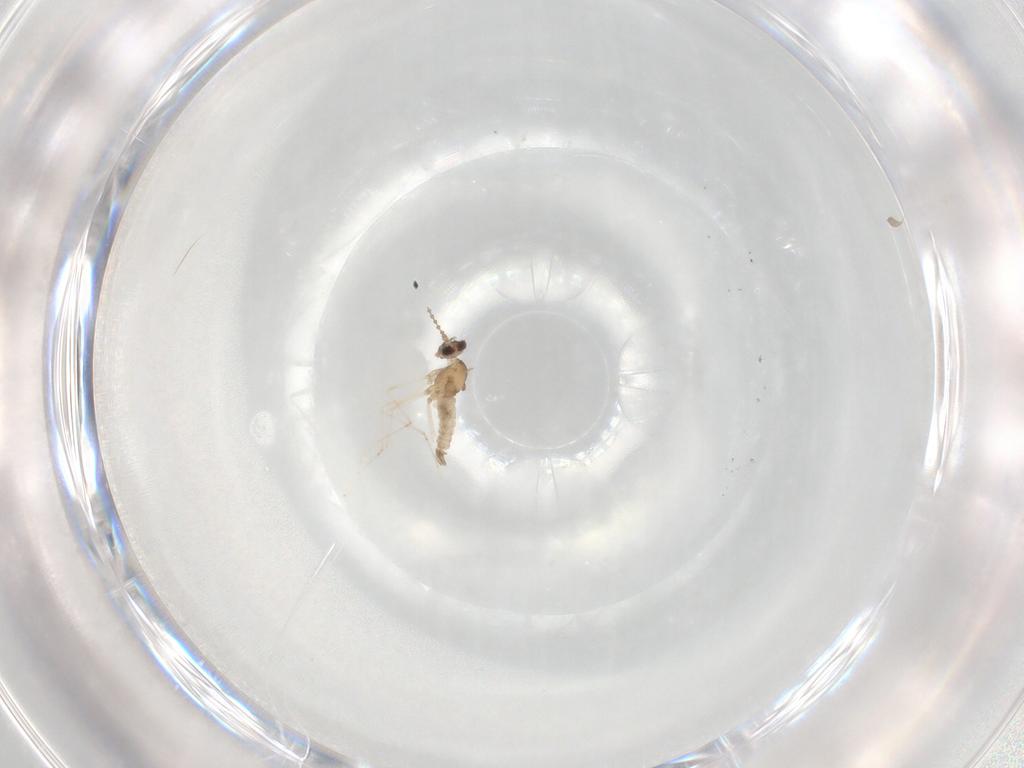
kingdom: Animalia
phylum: Arthropoda
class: Insecta
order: Diptera
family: Cecidomyiidae
